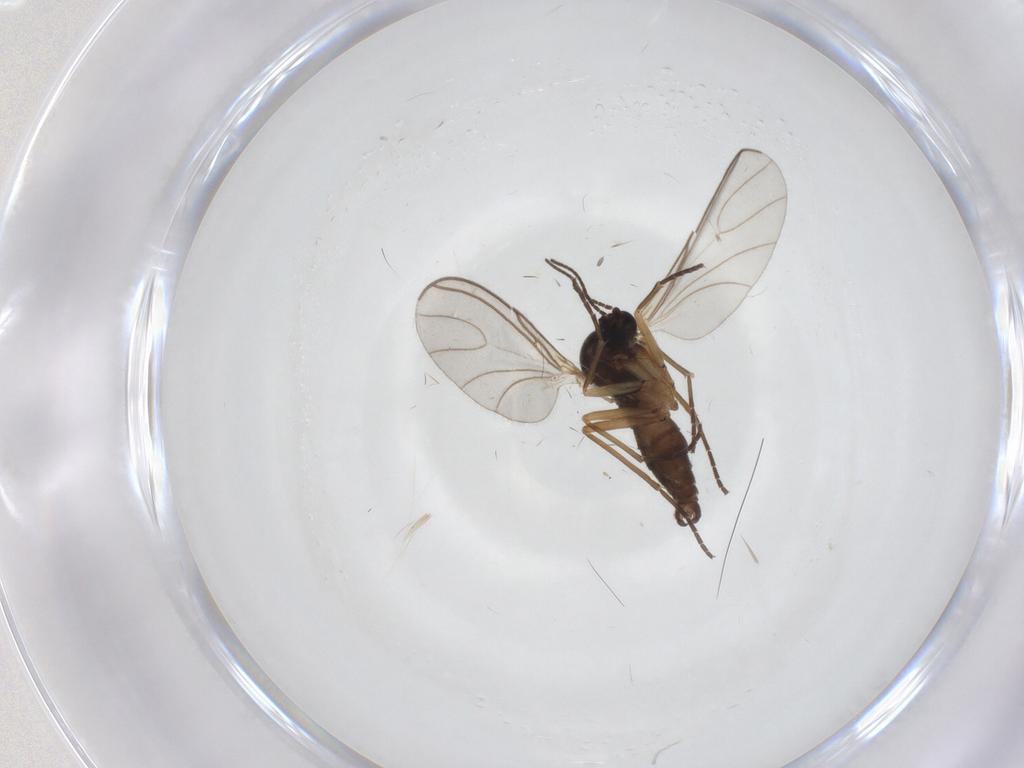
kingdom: Animalia
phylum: Arthropoda
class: Insecta
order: Diptera
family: Sciaridae
